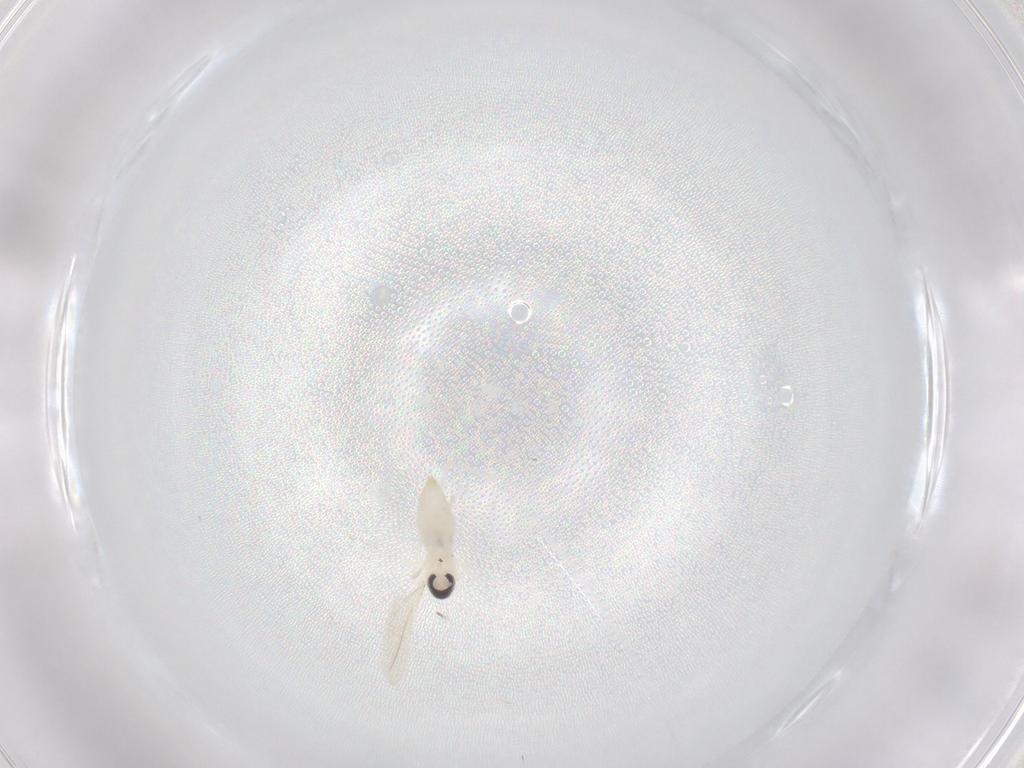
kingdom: Animalia
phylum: Arthropoda
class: Insecta
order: Diptera
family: Cecidomyiidae
